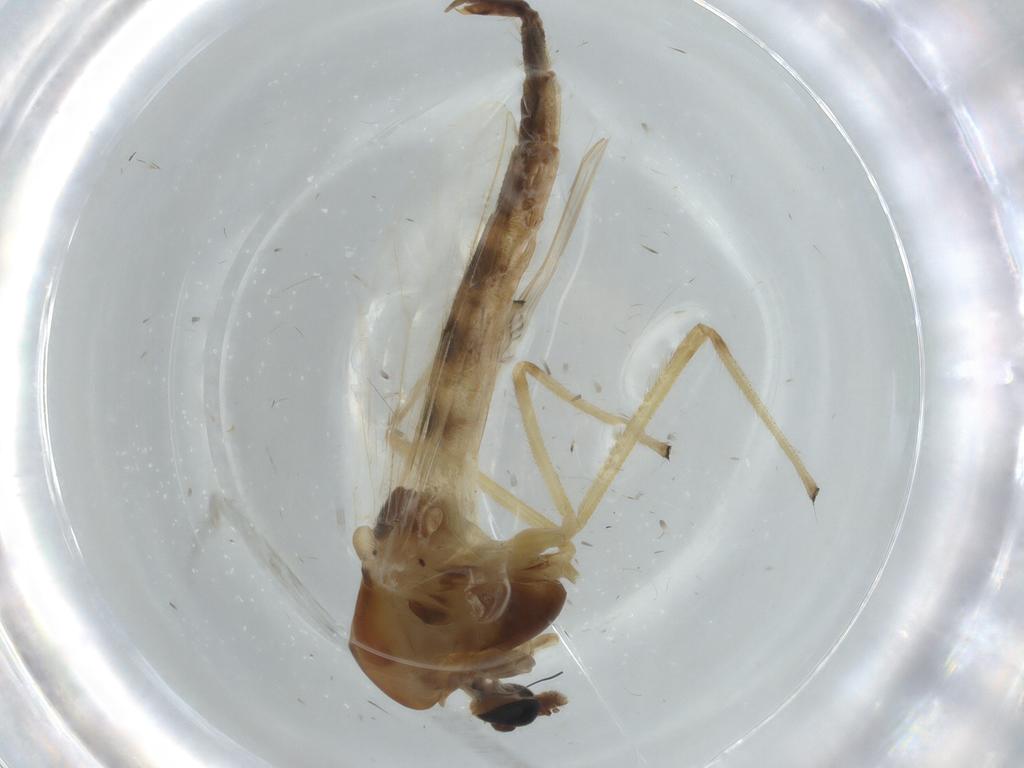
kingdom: Animalia
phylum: Arthropoda
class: Insecta
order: Diptera
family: Chironomidae
